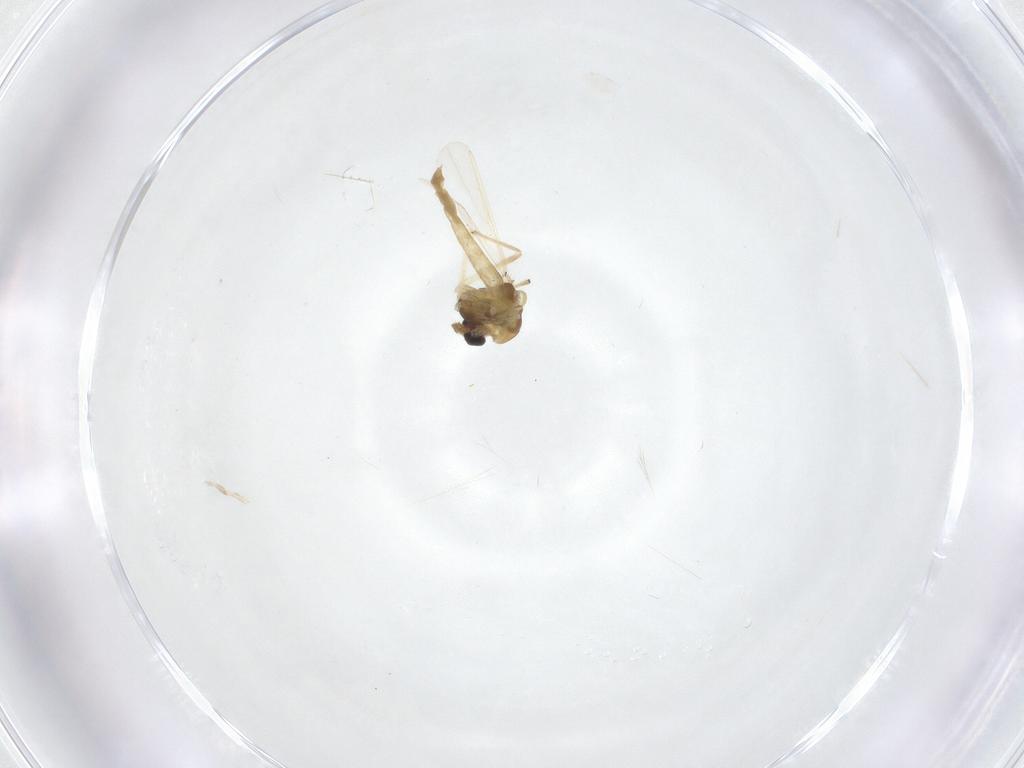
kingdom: Animalia
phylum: Arthropoda
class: Insecta
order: Diptera
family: Chironomidae
